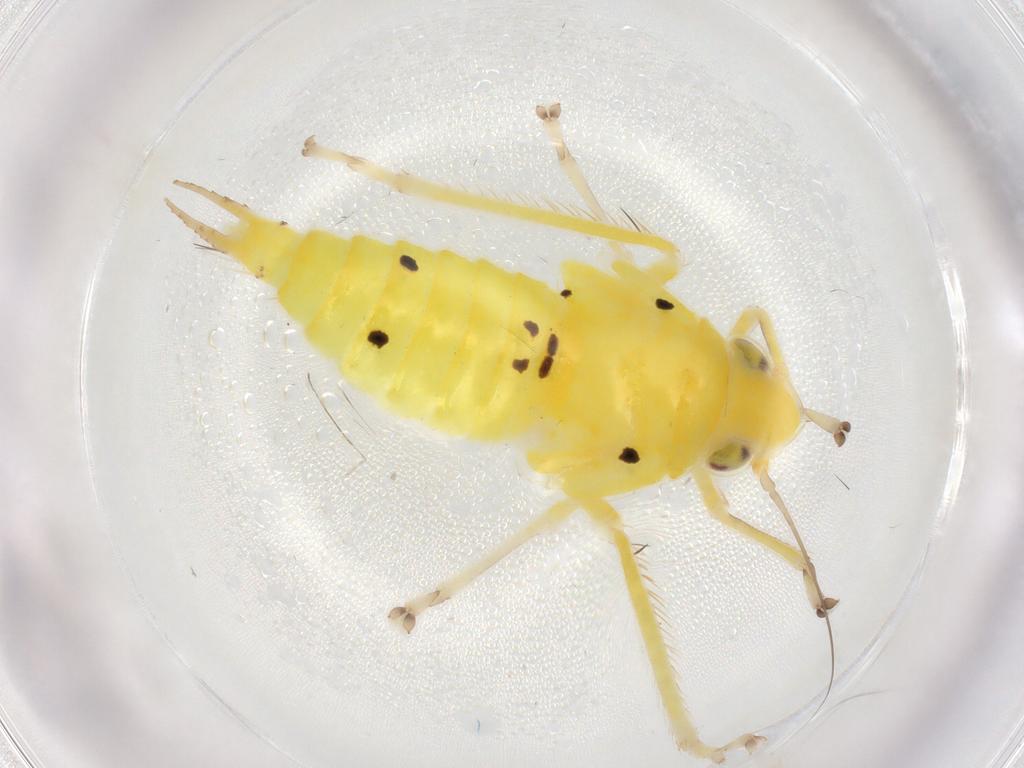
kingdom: Animalia
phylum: Arthropoda
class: Insecta
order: Hemiptera
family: Cicadellidae
